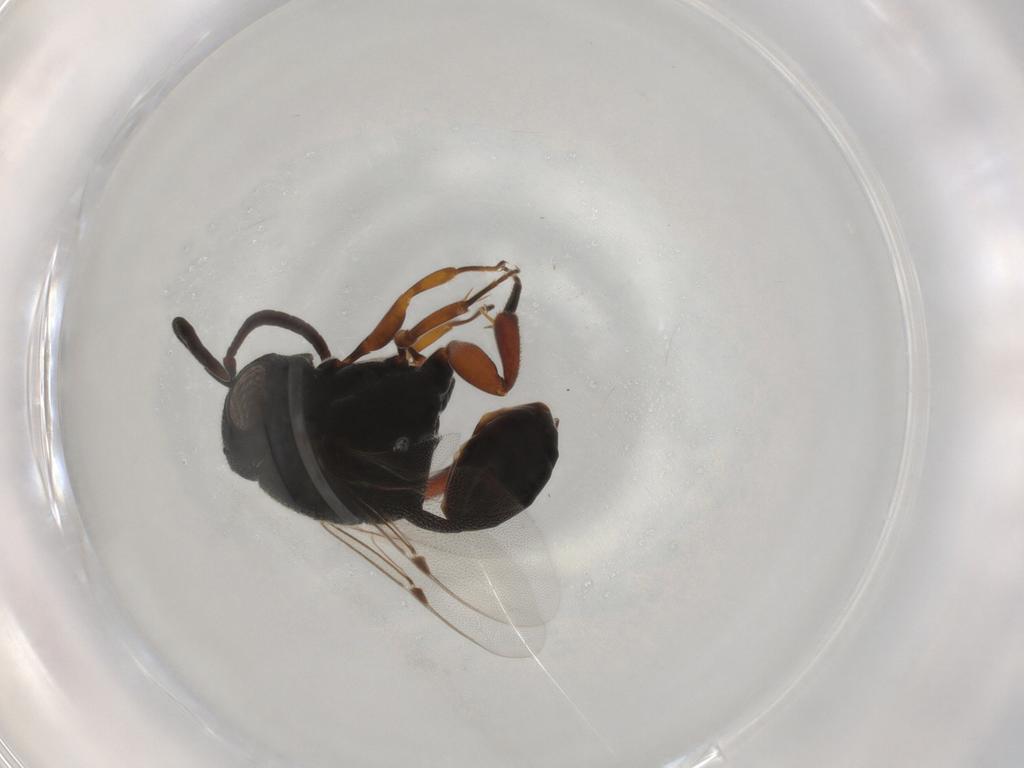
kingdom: Animalia
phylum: Arthropoda
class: Insecta
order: Hymenoptera
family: Evaniidae
